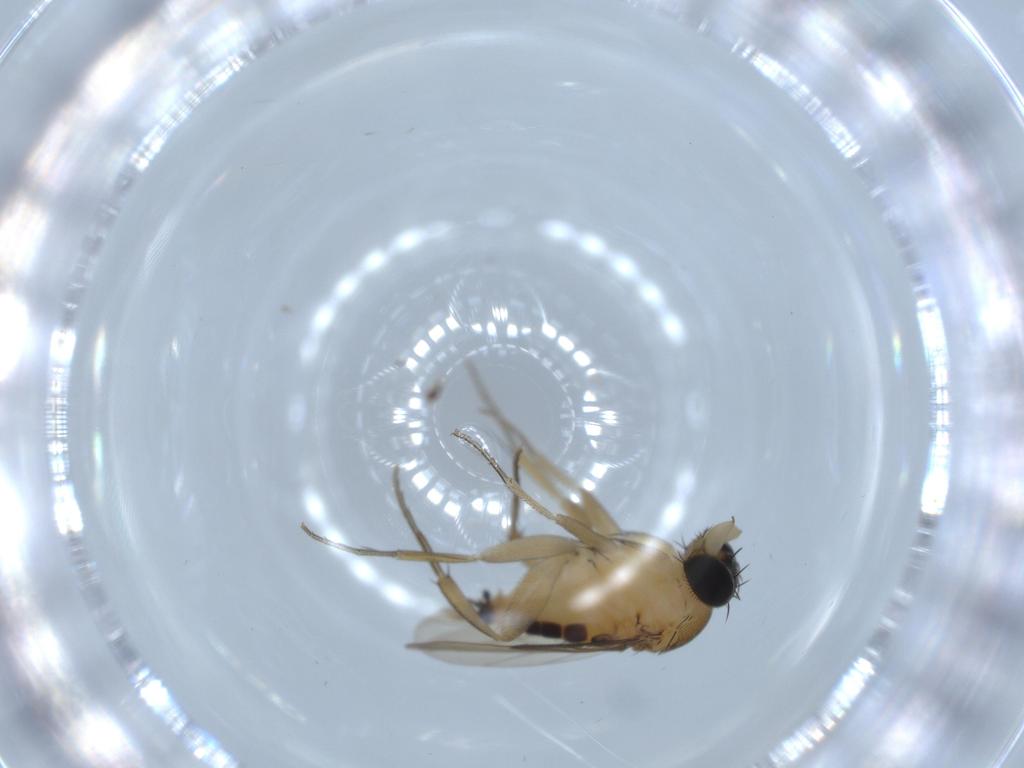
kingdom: Animalia
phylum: Arthropoda
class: Insecta
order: Diptera
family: Phoridae
